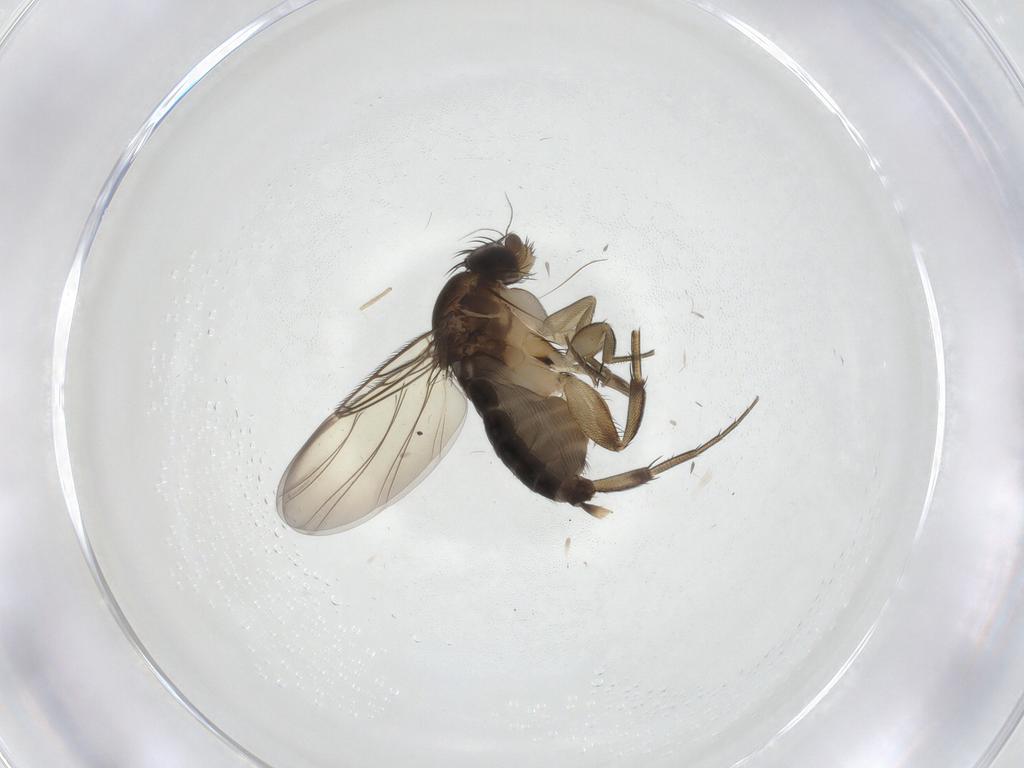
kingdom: Animalia
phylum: Arthropoda
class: Insecta
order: Diptera
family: Phoridae
